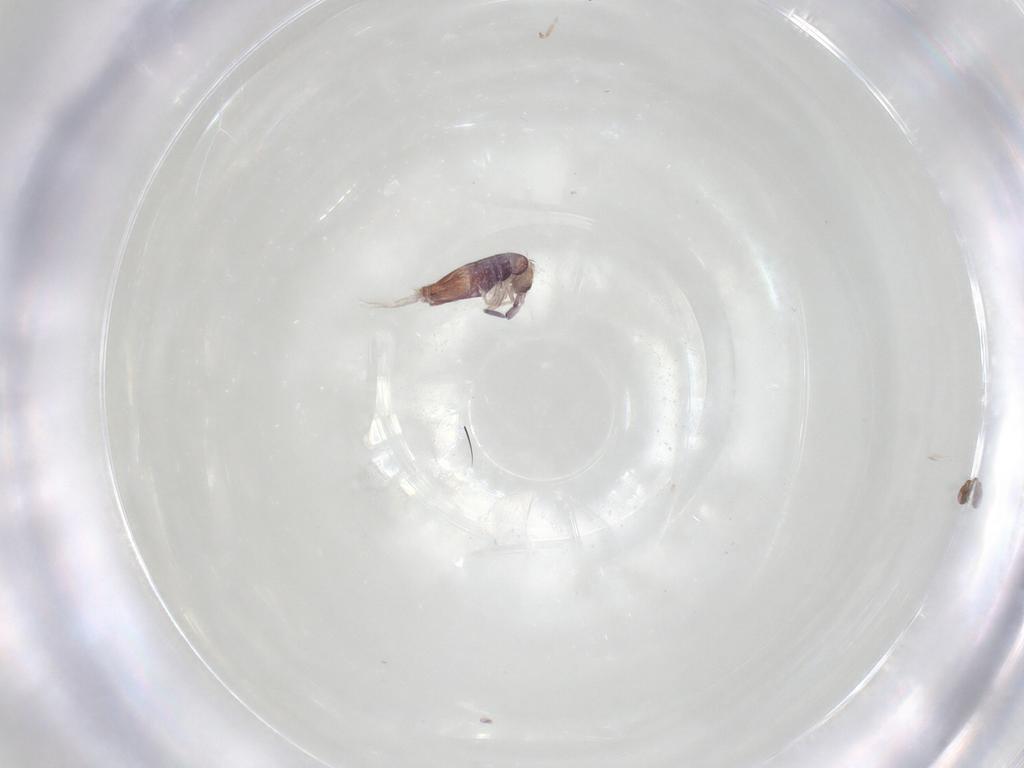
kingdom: Animalia
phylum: Arthropoda
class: Collembola
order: Entomobryomorpha
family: Entomobryidae
